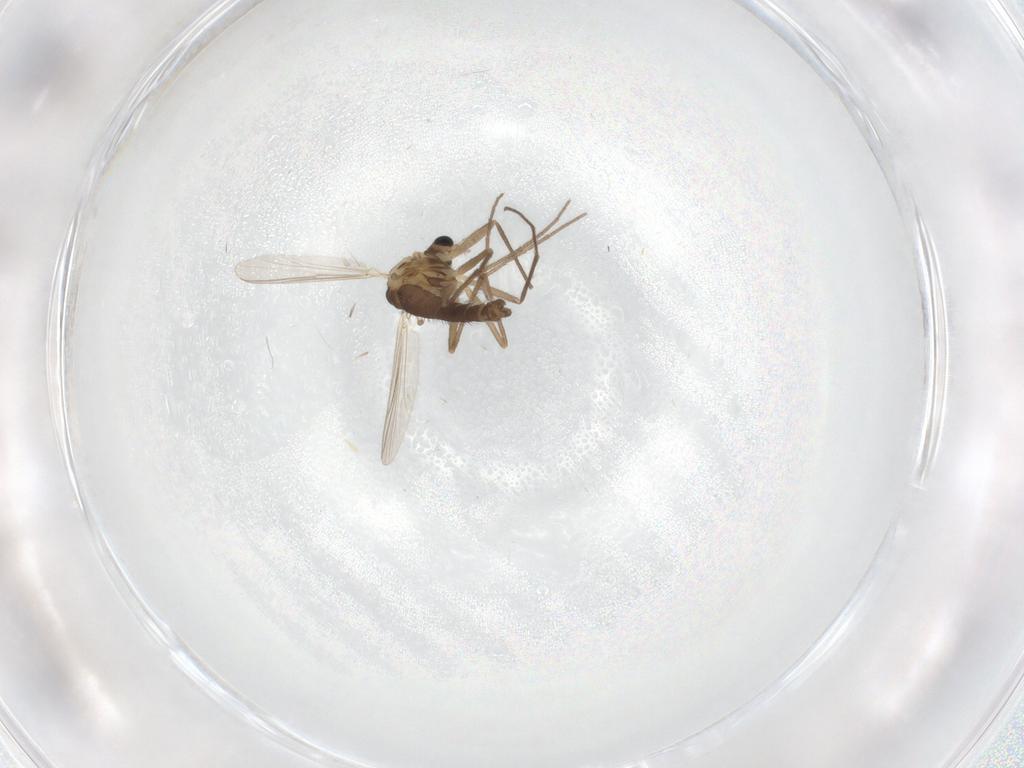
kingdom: Animalia
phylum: Arthropoda
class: Insecta
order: Diptera
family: Chironomidae
